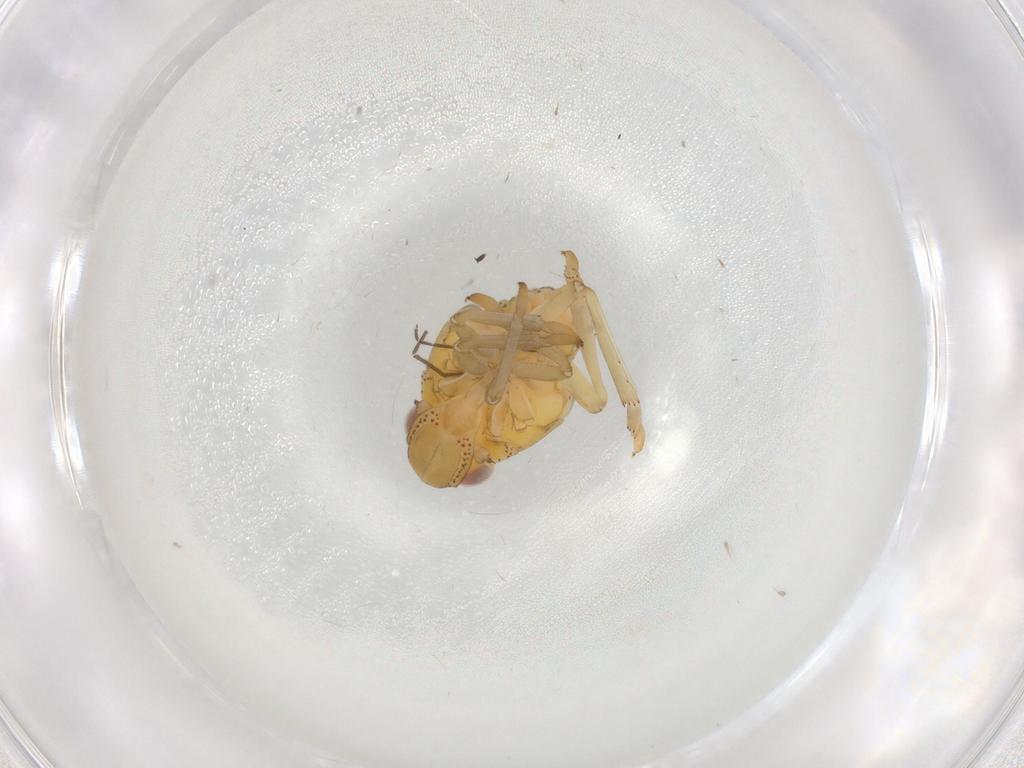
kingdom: Animalia
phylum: Arthropoda
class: Insecta
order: Hemiptera
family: Tropiduchidae
